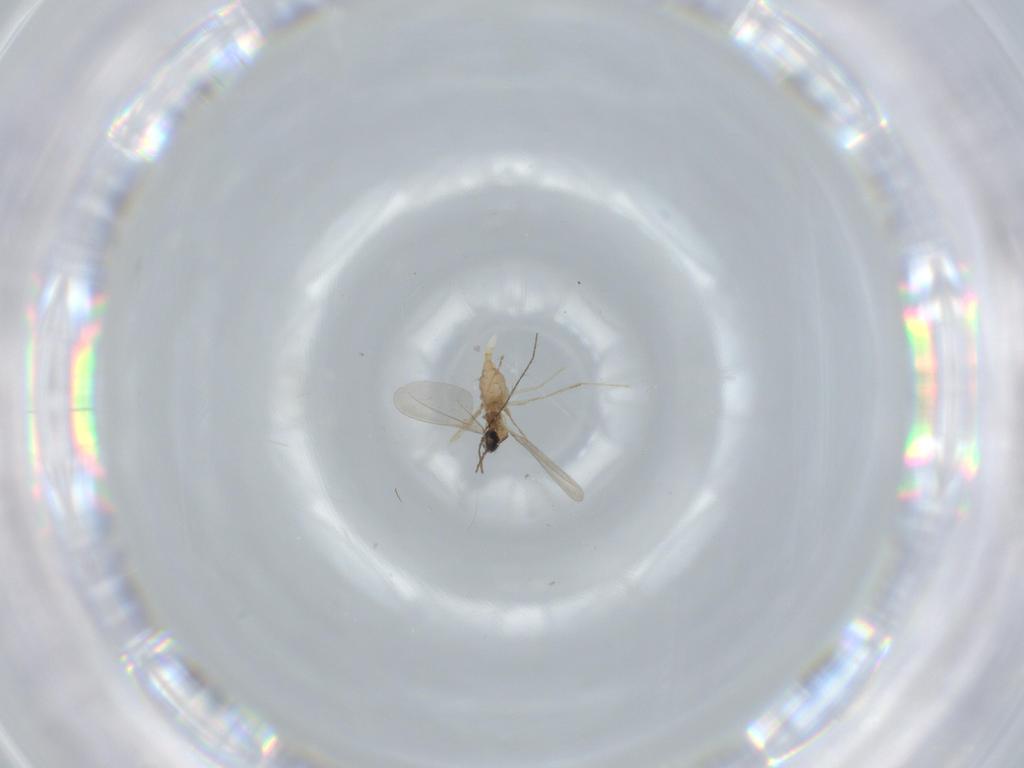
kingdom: Animalia
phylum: Arthropoda
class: Insecta
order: Diptera
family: Cecidomyiidae
